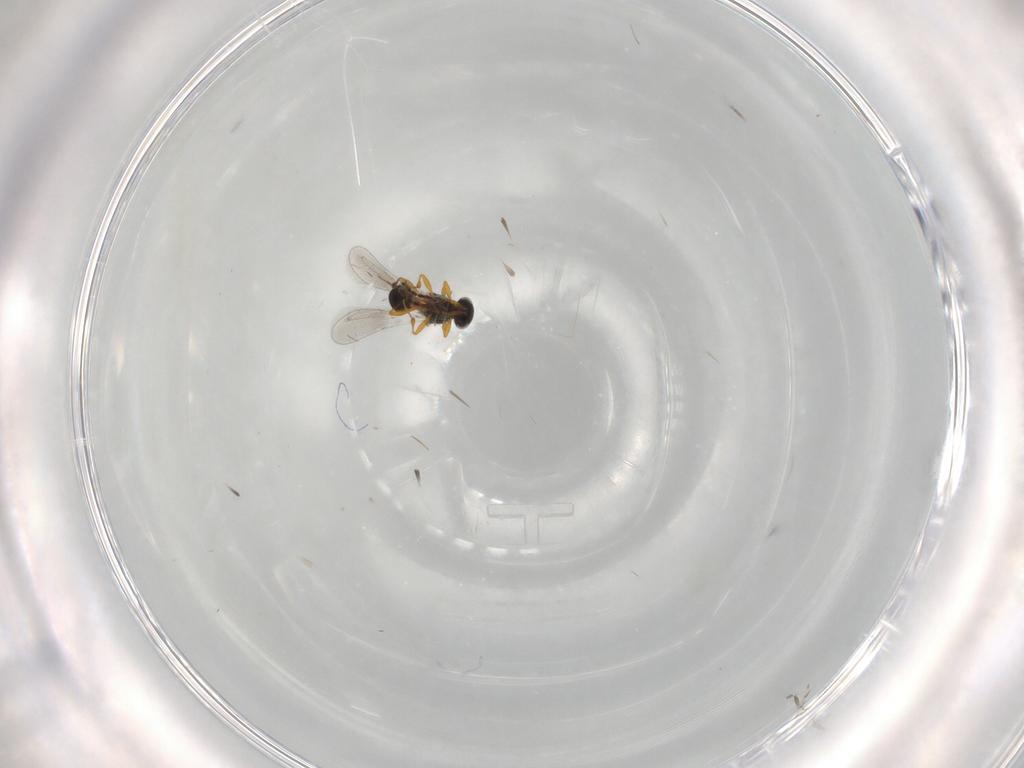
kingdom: Animalia
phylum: Arthropoda
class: Insecta
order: Hymenoptera
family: Platygastridae
